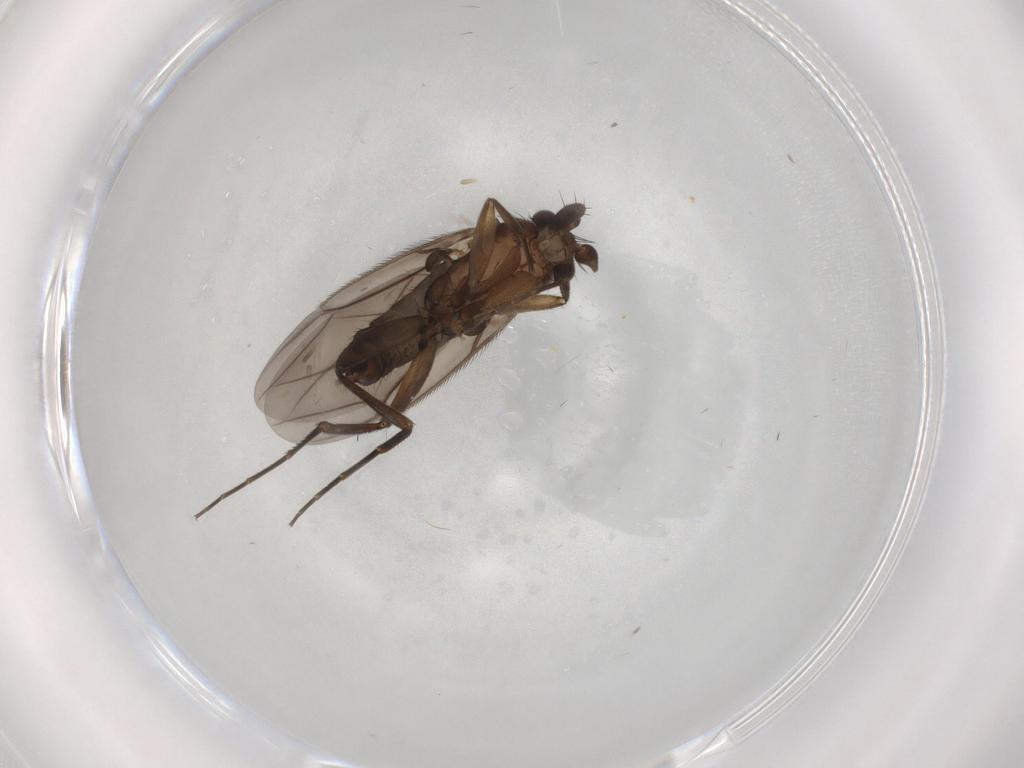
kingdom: Animalia
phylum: Arthropoda
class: Insecta
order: Diptera
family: Phoridae
